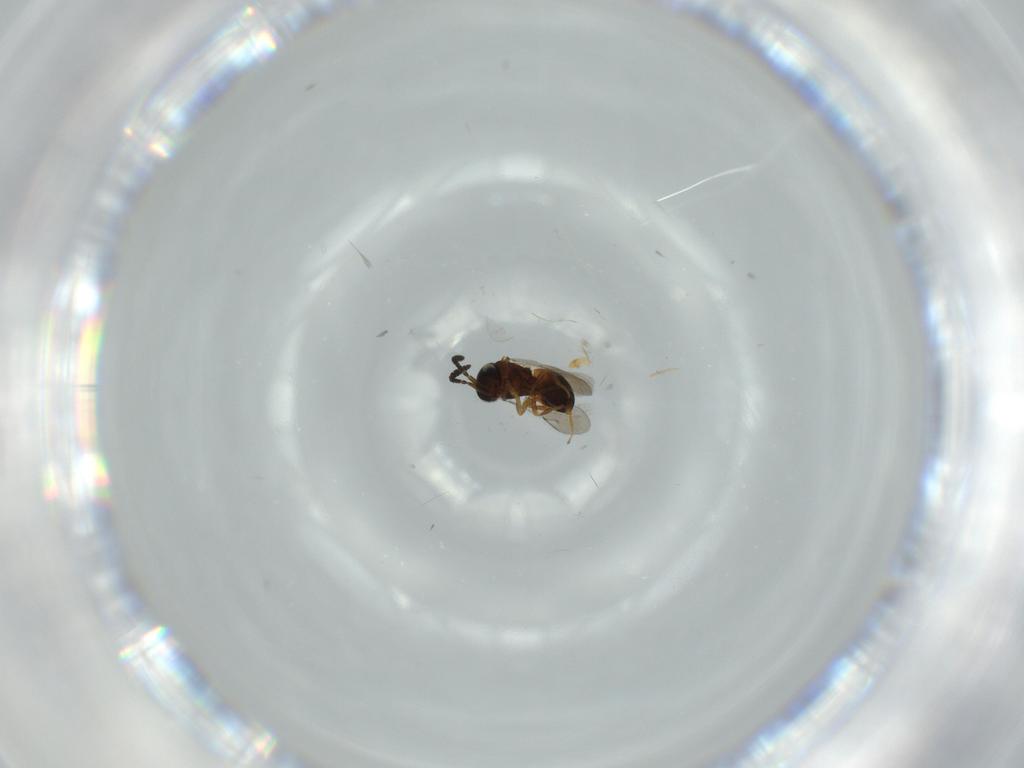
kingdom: Animalia
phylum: Arthropoda
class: Insecta
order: Hymenoptera
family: Scelionidae
